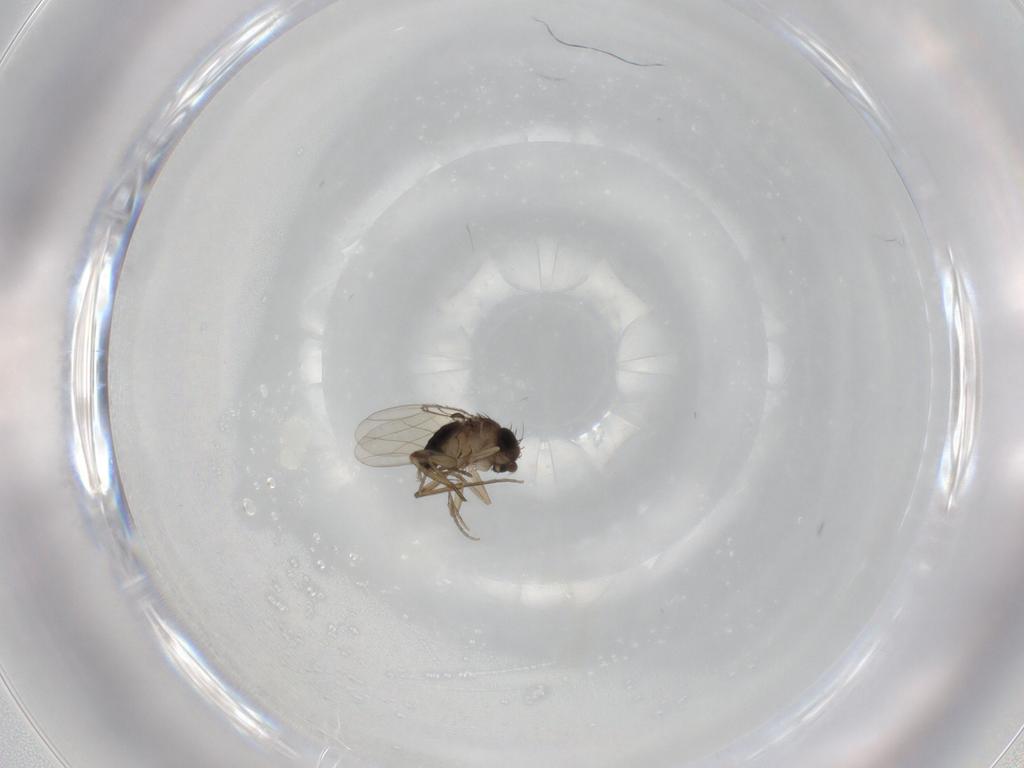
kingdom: Animalia
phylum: Arthropoda
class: Insecta
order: Diptera
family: Phoridae
